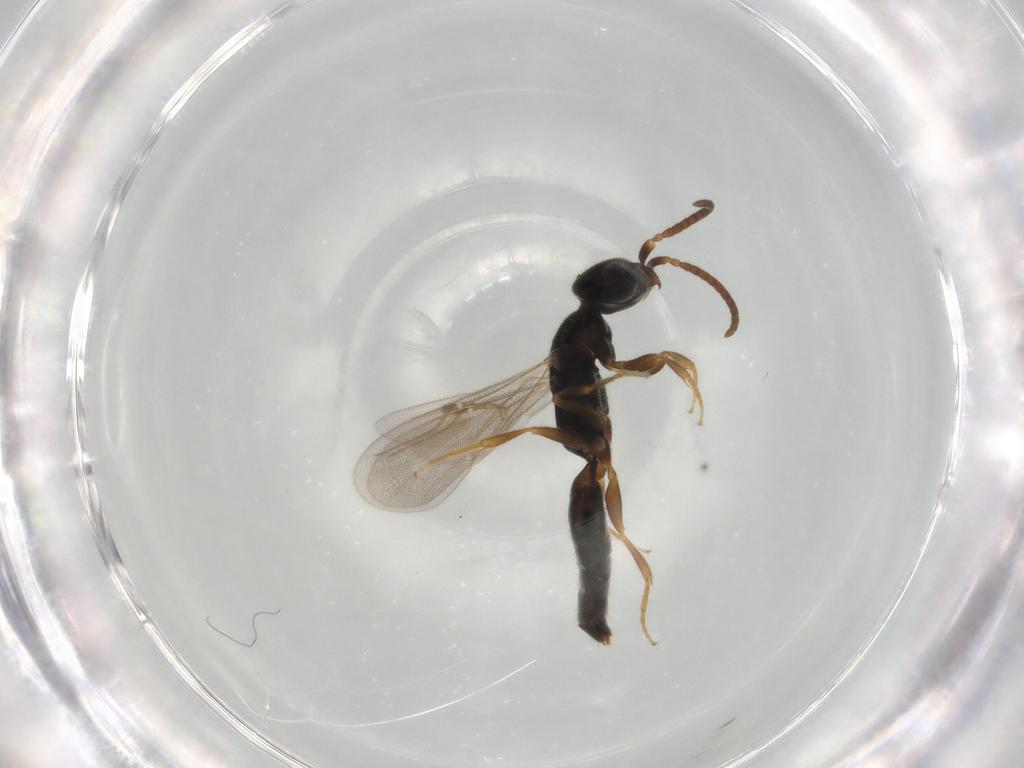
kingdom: Animalia
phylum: Arthropoda
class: Insecta
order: Hymenoptera
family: Bethylidae
